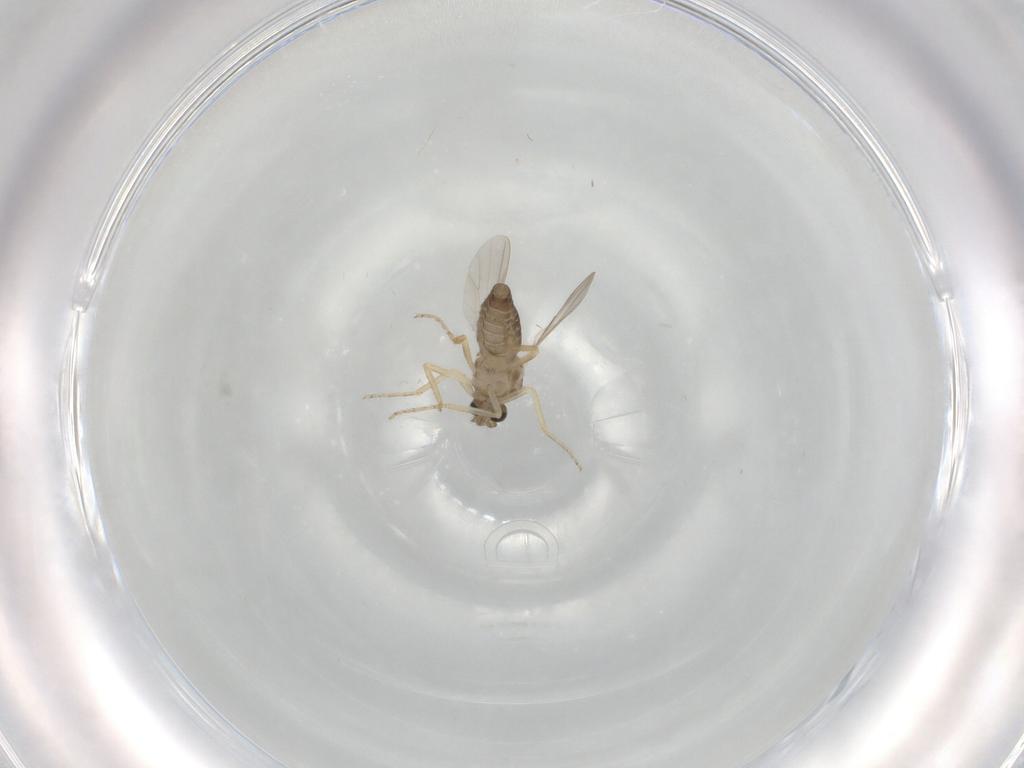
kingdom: Animalia
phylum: Arthropoda
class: Insecta
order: Diptera
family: Ceratopogonidae
